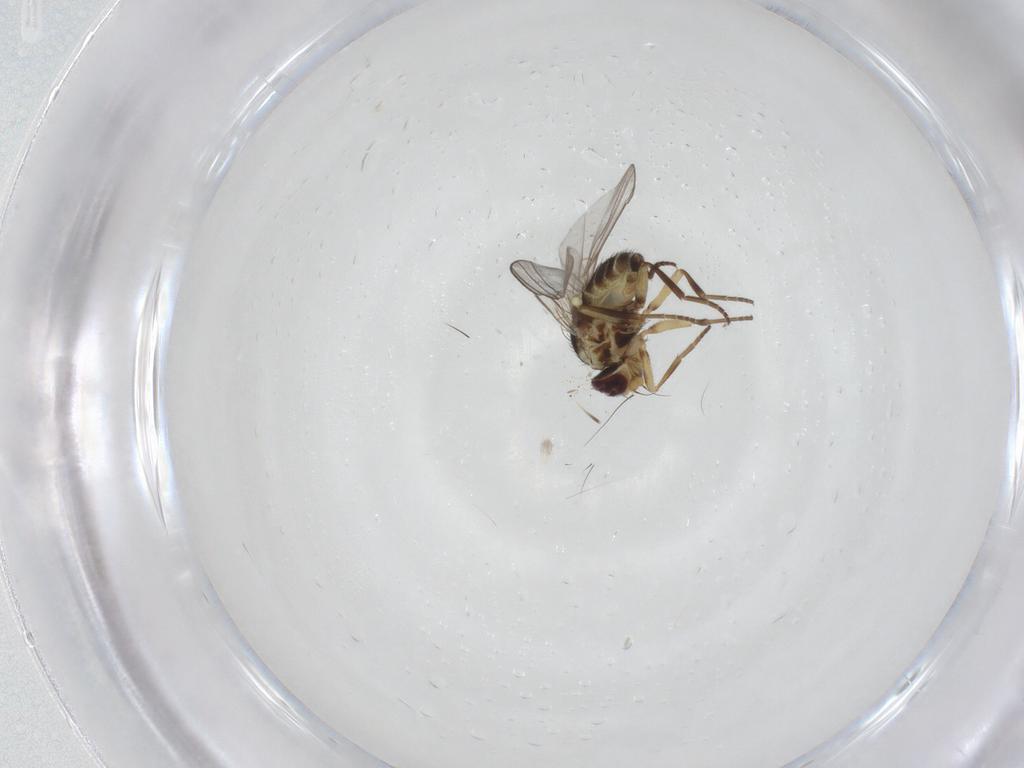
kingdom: Animalia
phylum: Arthropoda
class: Insecta
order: Diptera
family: Agromyzidae
